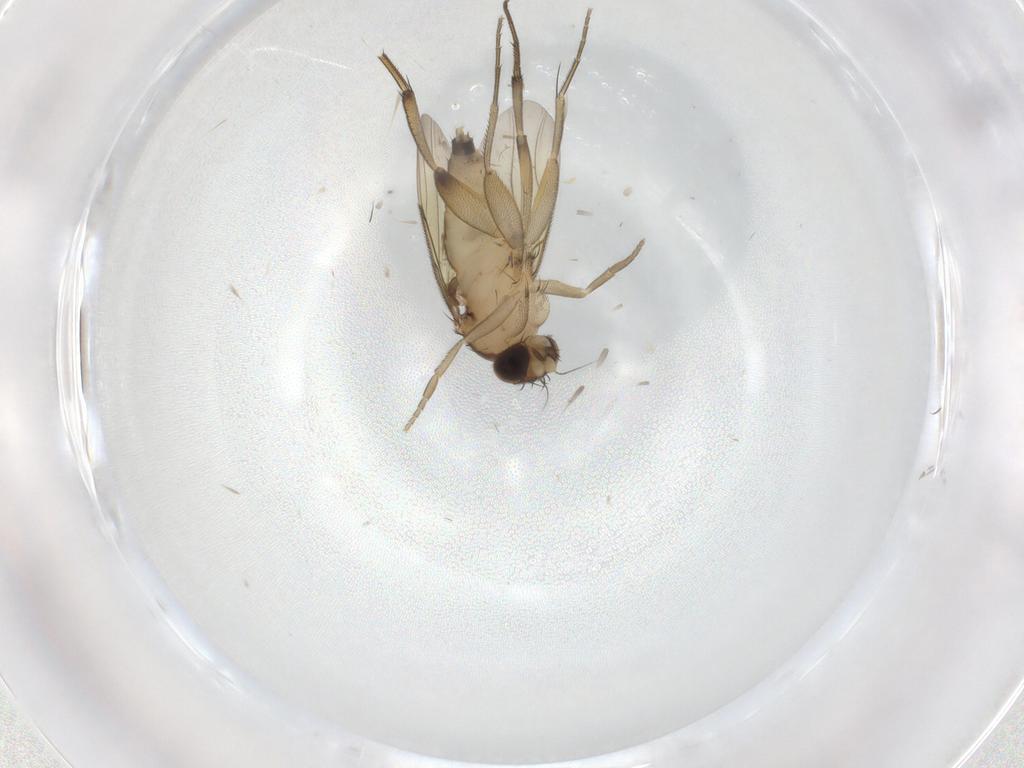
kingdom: Animalia
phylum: Arthropoda
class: Insecta
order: Diptera
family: Phoridae
